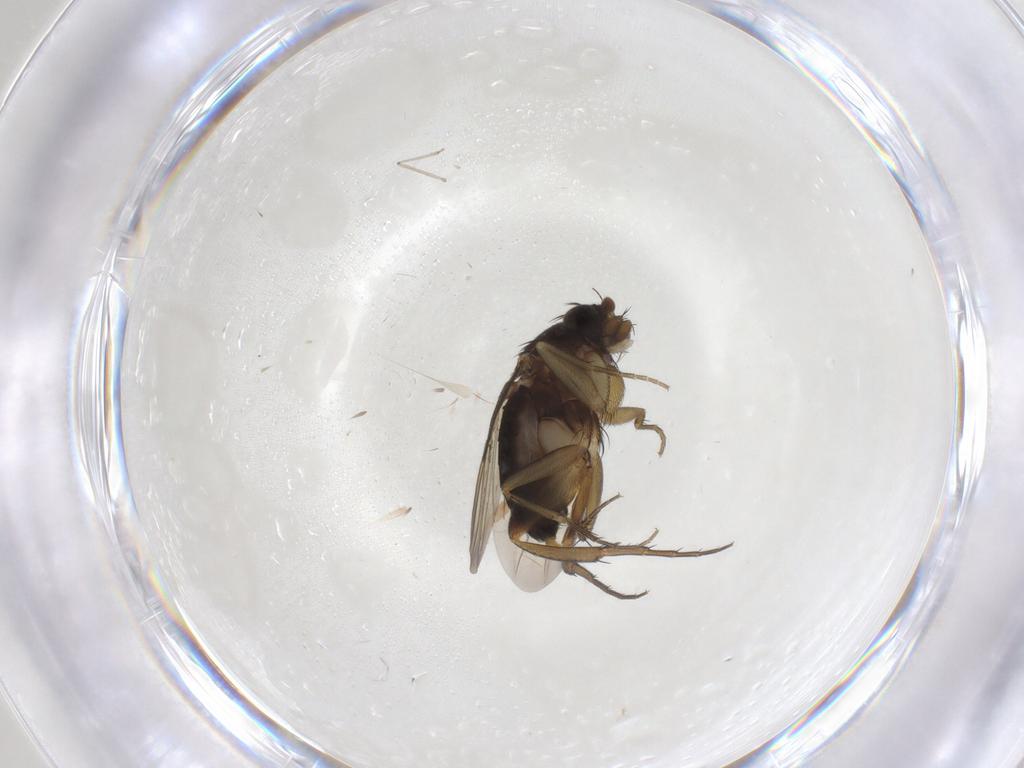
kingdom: Animalia
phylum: Arthropoda
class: Insecta
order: Diptera
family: Phoridae
